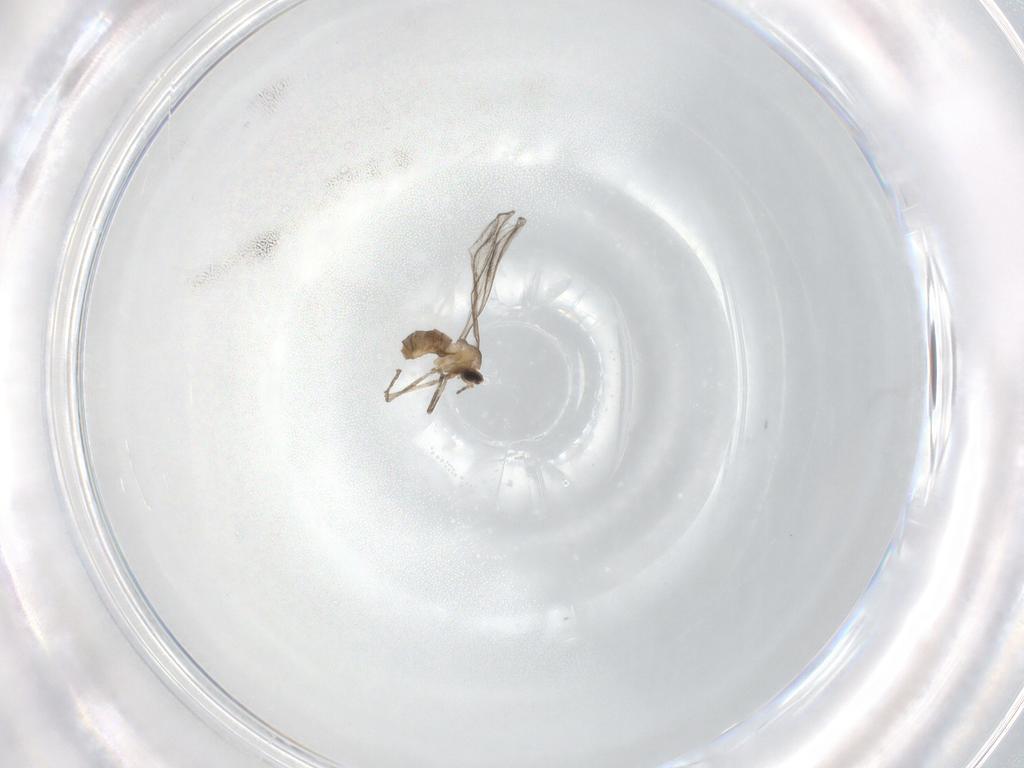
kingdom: Animalia
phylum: Arthropoda
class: Insecta
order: Diptera
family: Cecidomyiidae
